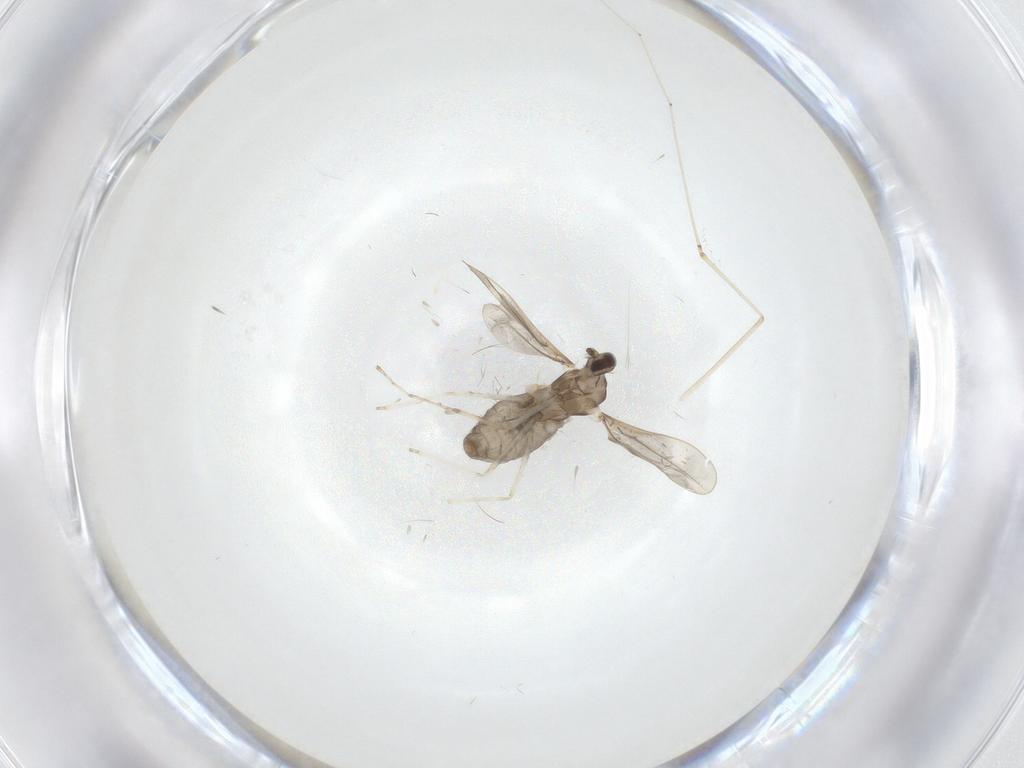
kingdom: Animalia
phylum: Arthropoda
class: Insecta
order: Diptera
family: Cecidomyiidae
